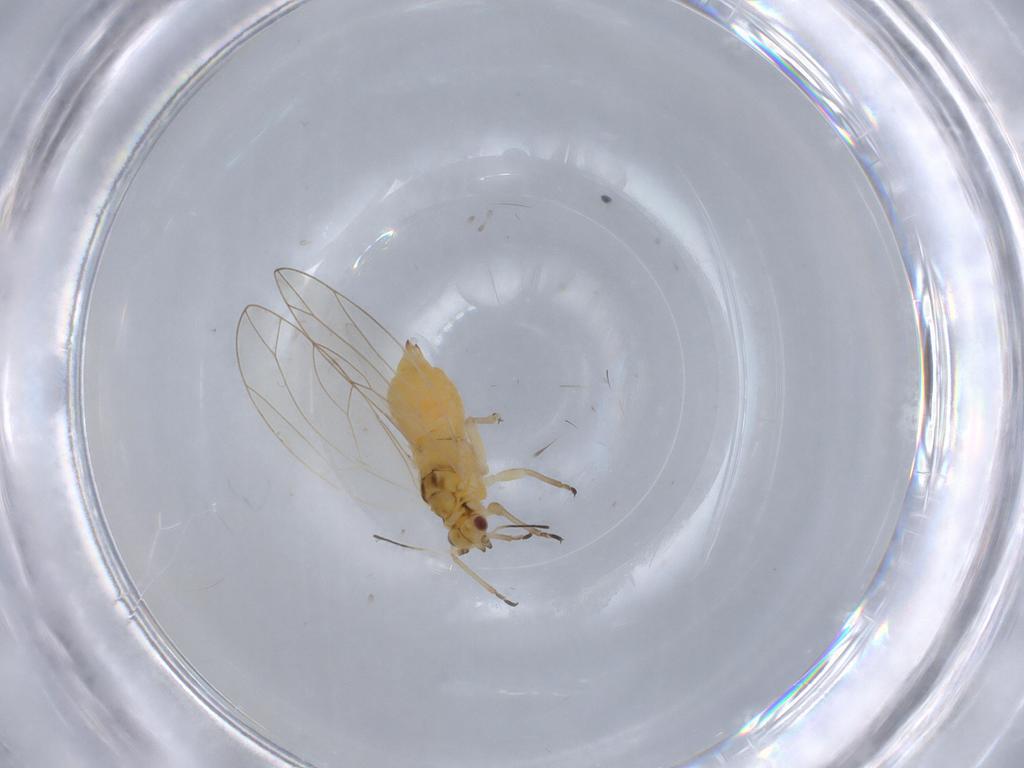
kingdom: Animalia
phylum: Arthropoda
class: Insecta
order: Hemiptera
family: Triozidae
